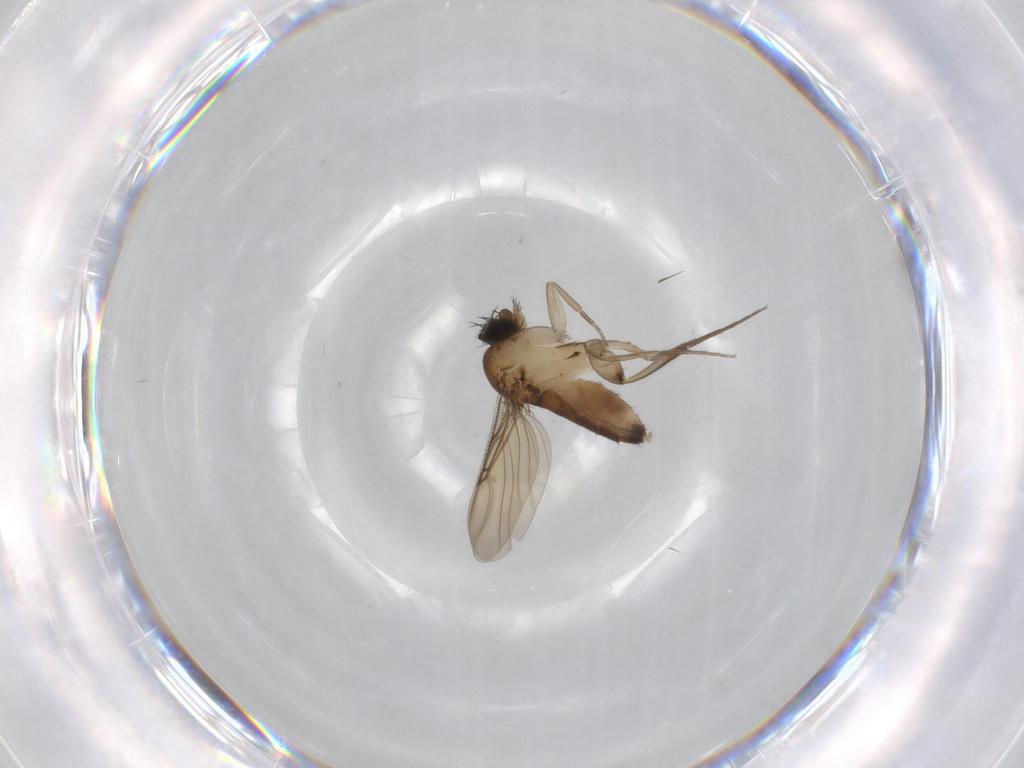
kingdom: Animalia
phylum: Arthropoda
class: Insecta
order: Diptera
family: Phoridae
